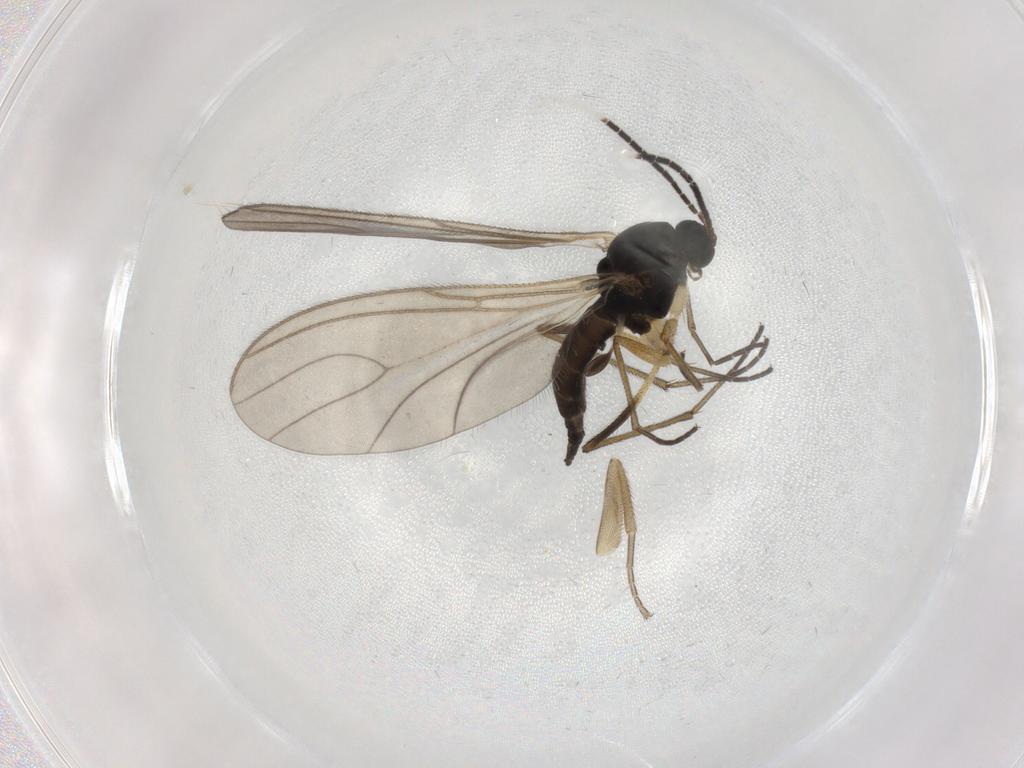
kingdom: Animalia
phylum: Arthropoda
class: Insecta
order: Diptera
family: Sciaridae
